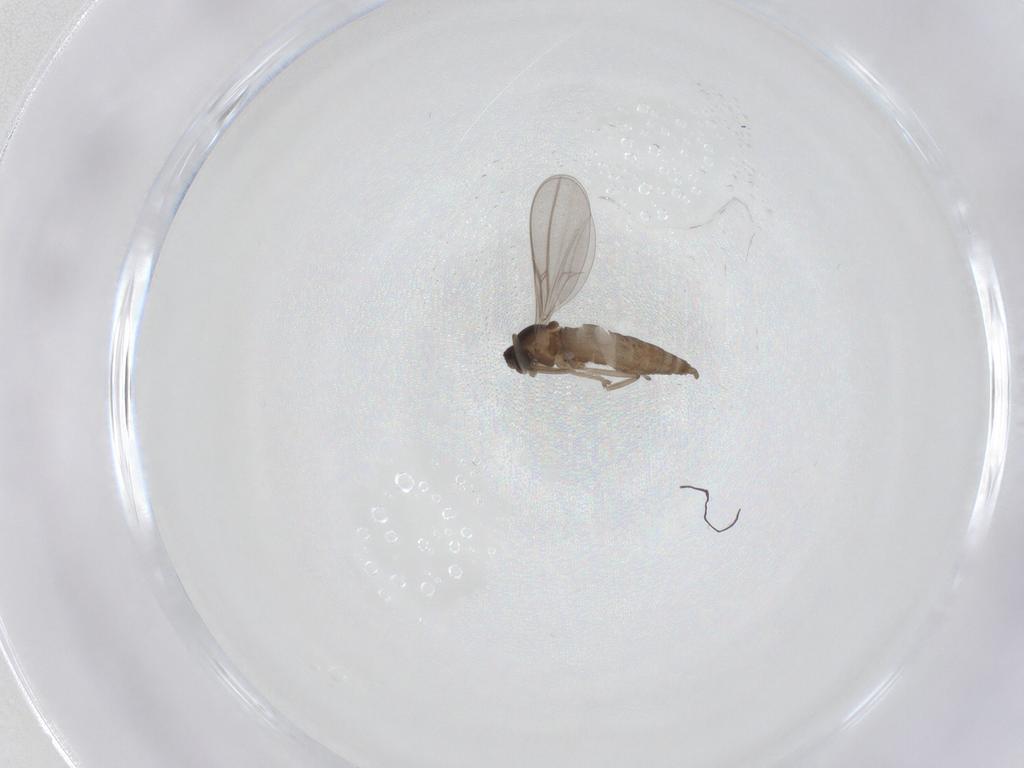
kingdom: Animalia
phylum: Arthropoda
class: Insecta
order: Diptera
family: Cecidomyiidae
